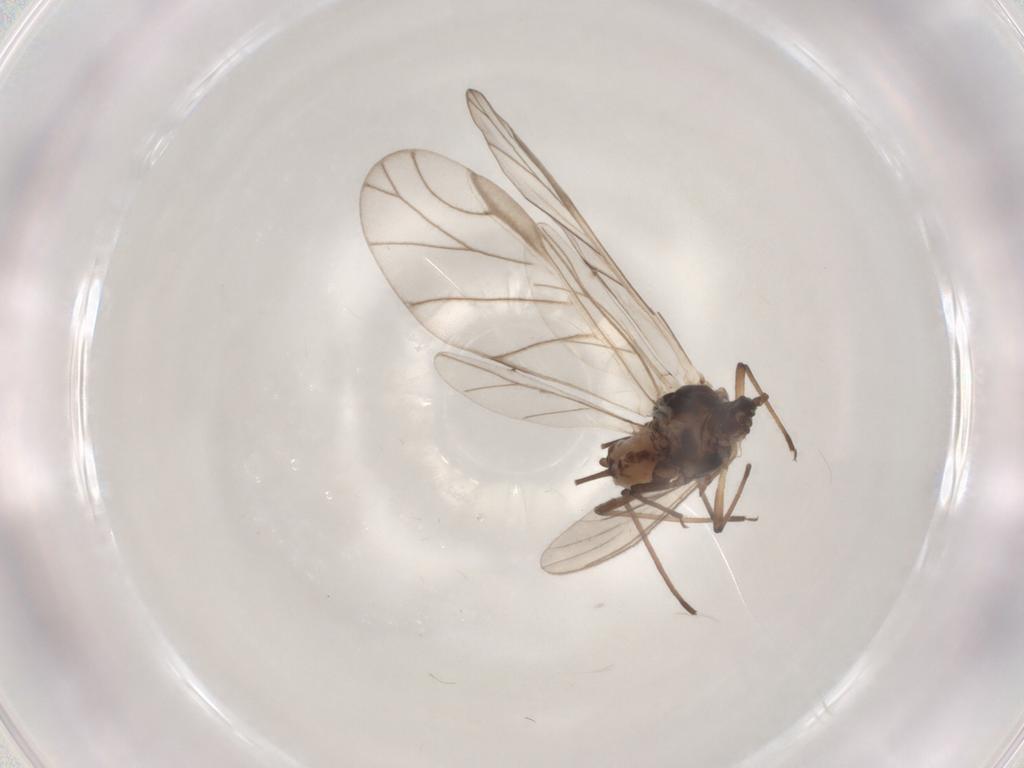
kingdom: Animalia
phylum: Arthropoda
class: Insecta
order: Hemiptera
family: Aphididae
